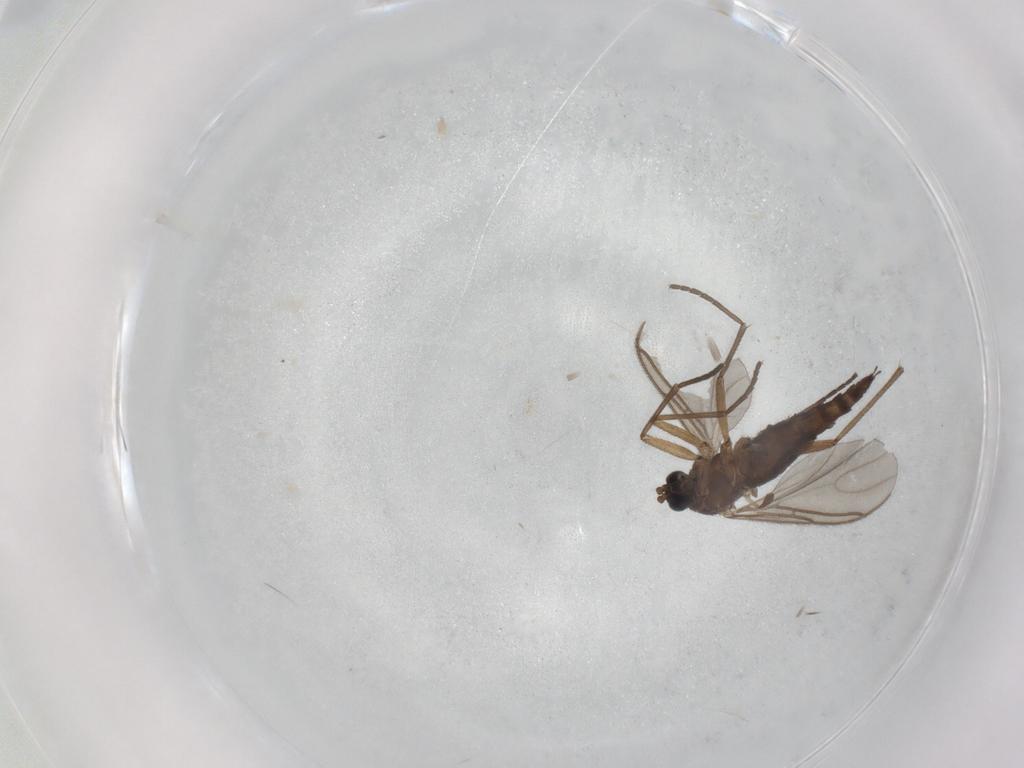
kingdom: Animalia
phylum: Arthropoda
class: Insecta
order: Diptera
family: Sciaridae
